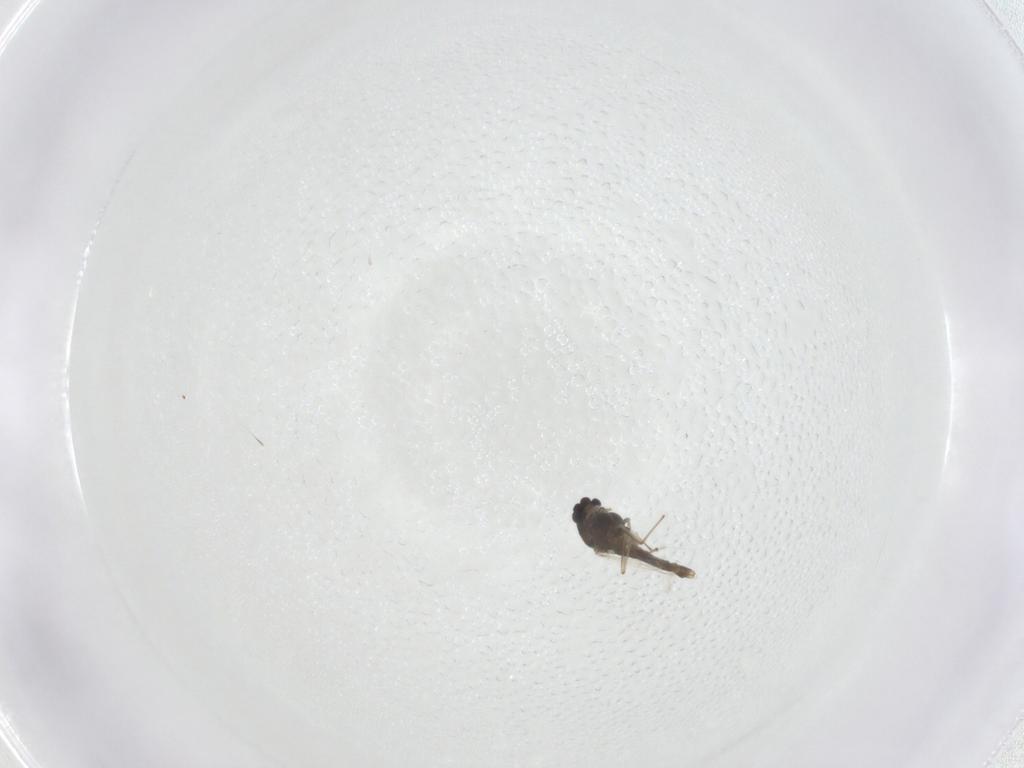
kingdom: Animalia
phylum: Arthropoda
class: Insecta
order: Diptera
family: Chironomidae
